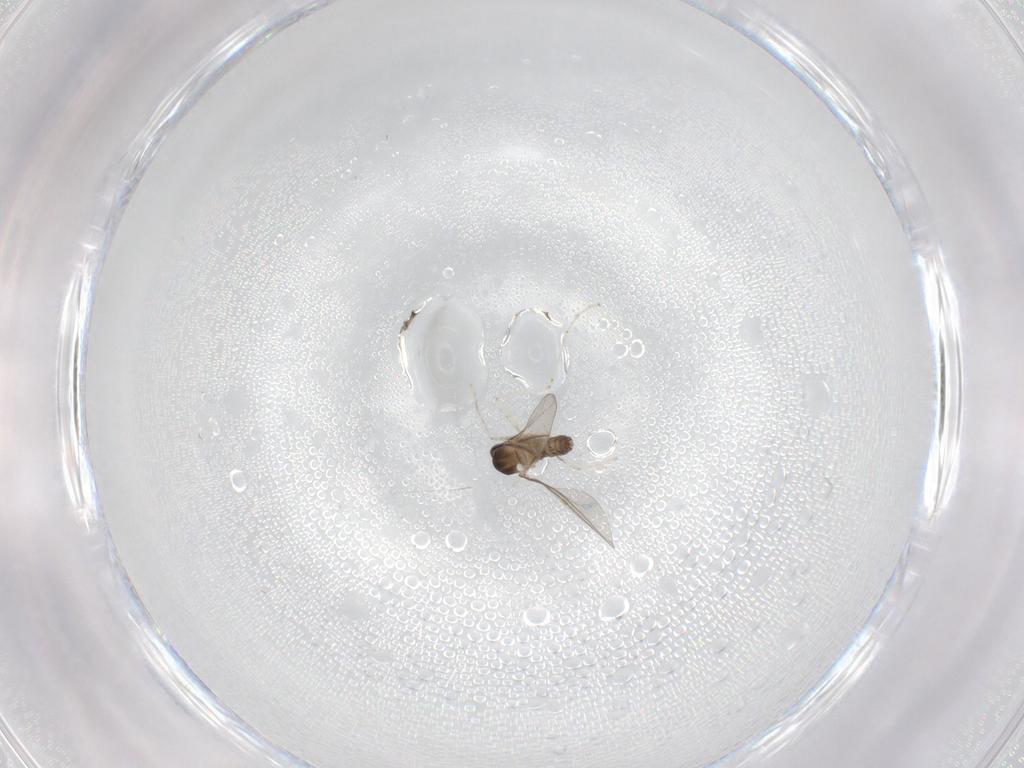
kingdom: Animalia
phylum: Arthropoda
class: Insecta
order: Diptera
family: Cecidomyiidae
